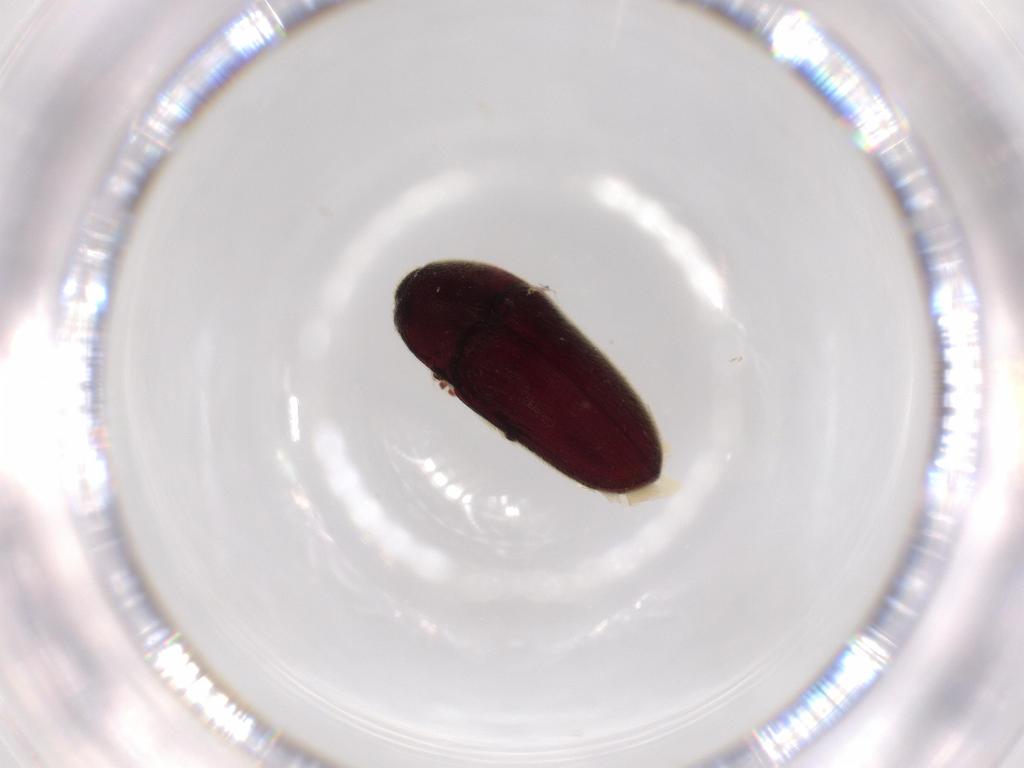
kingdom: Animalia
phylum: Arthropoda
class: Insecta
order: Coleoptera
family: Throscidae
